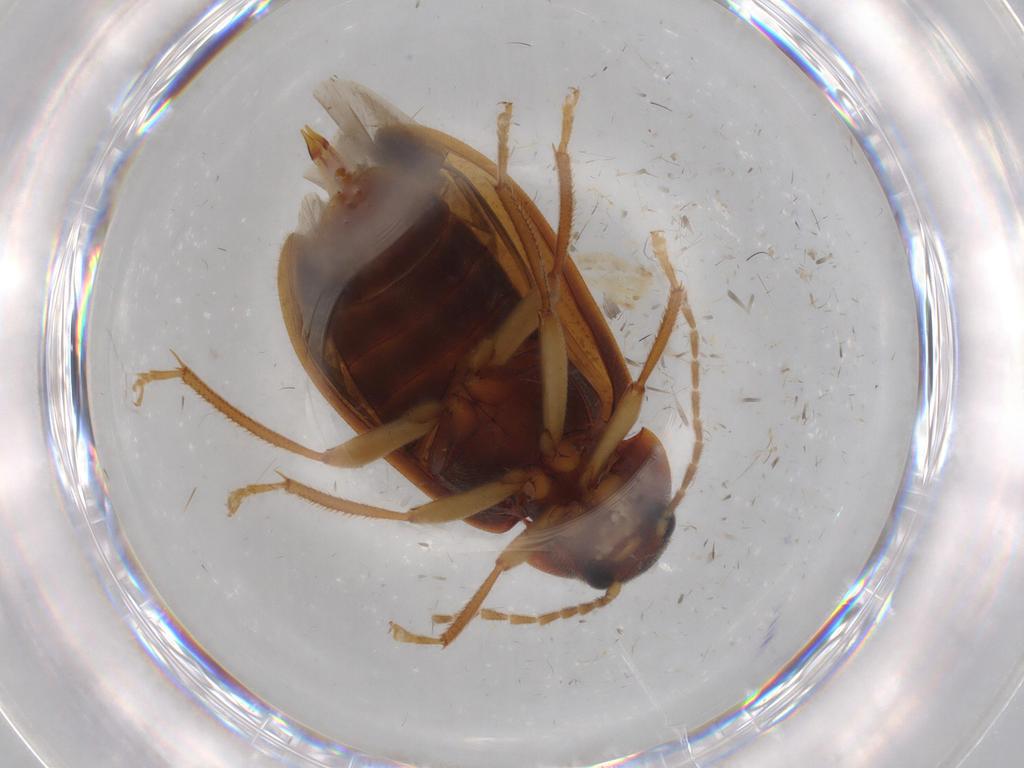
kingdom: Animalia
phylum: Arthropoda
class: Insecta
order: Coleoptera
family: Ptilodactylidae
